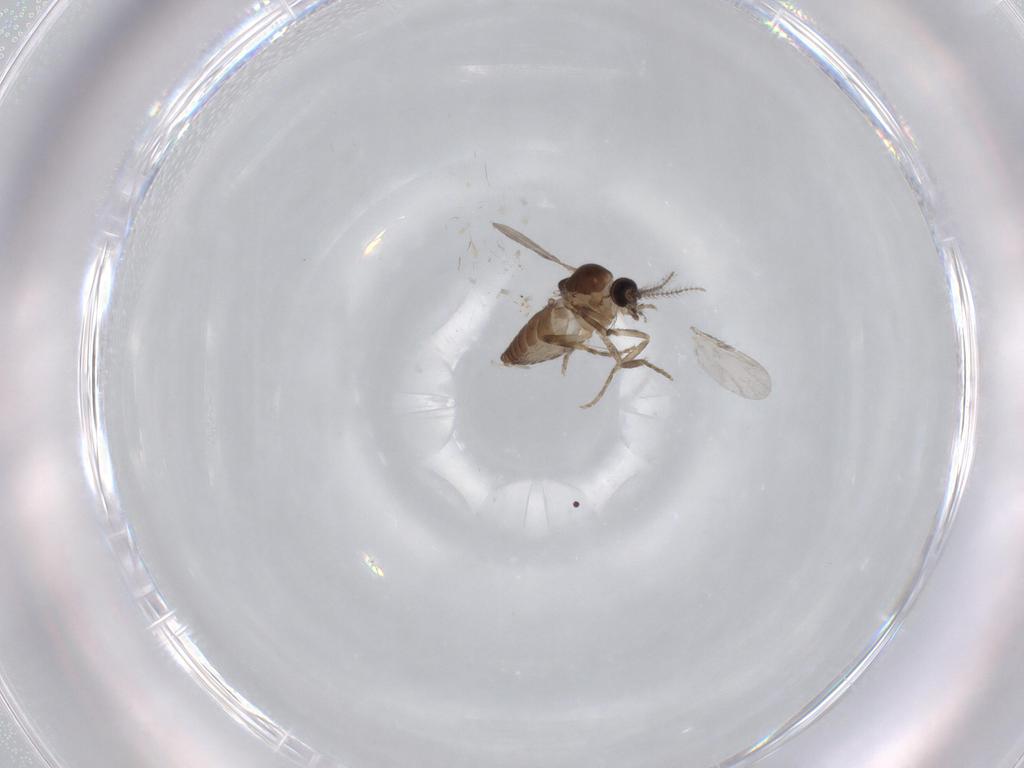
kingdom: Animalia
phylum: Arthropoda
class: Insecta
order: Diptera
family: Ceratopogonidae
